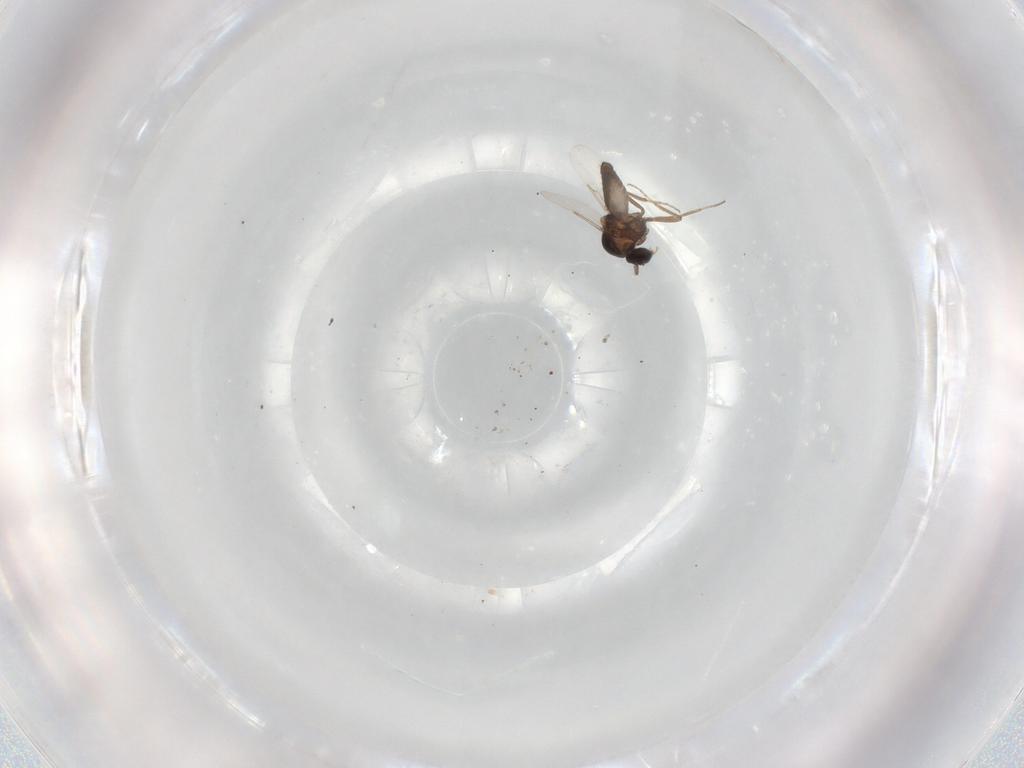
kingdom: Animalia
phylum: Arthropoda
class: Insecta
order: Diptera
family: Ceratopogonidae
